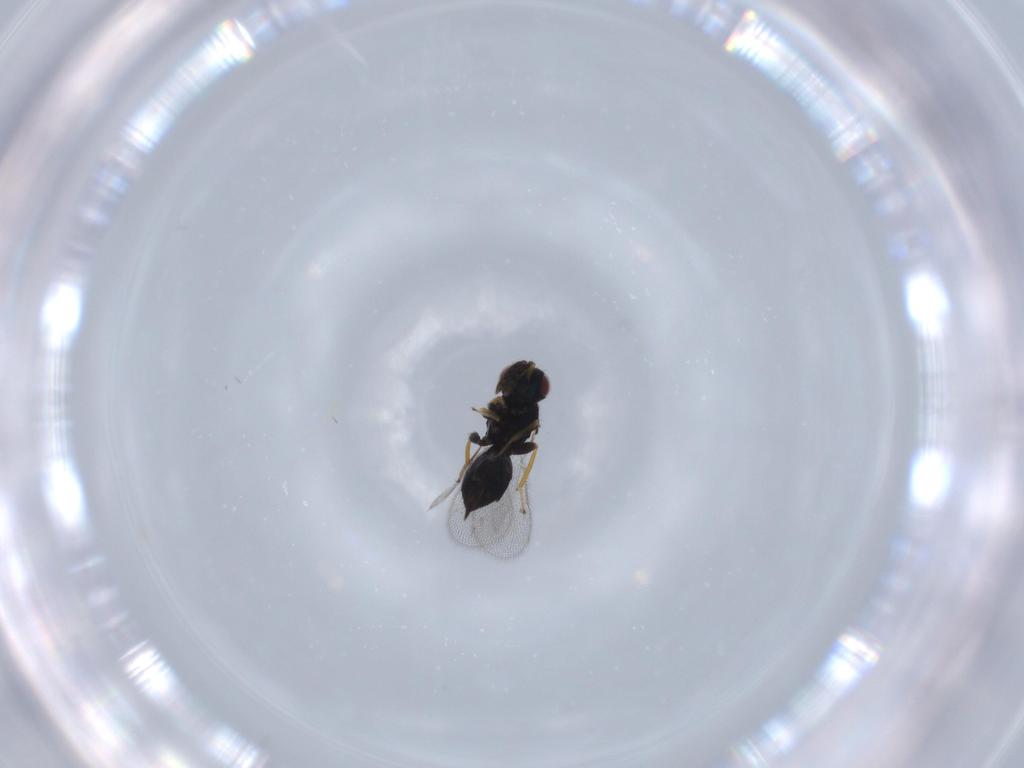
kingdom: Animalia
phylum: Arthropoda
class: Insecta
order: Hymenoptera
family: Eulophidae
